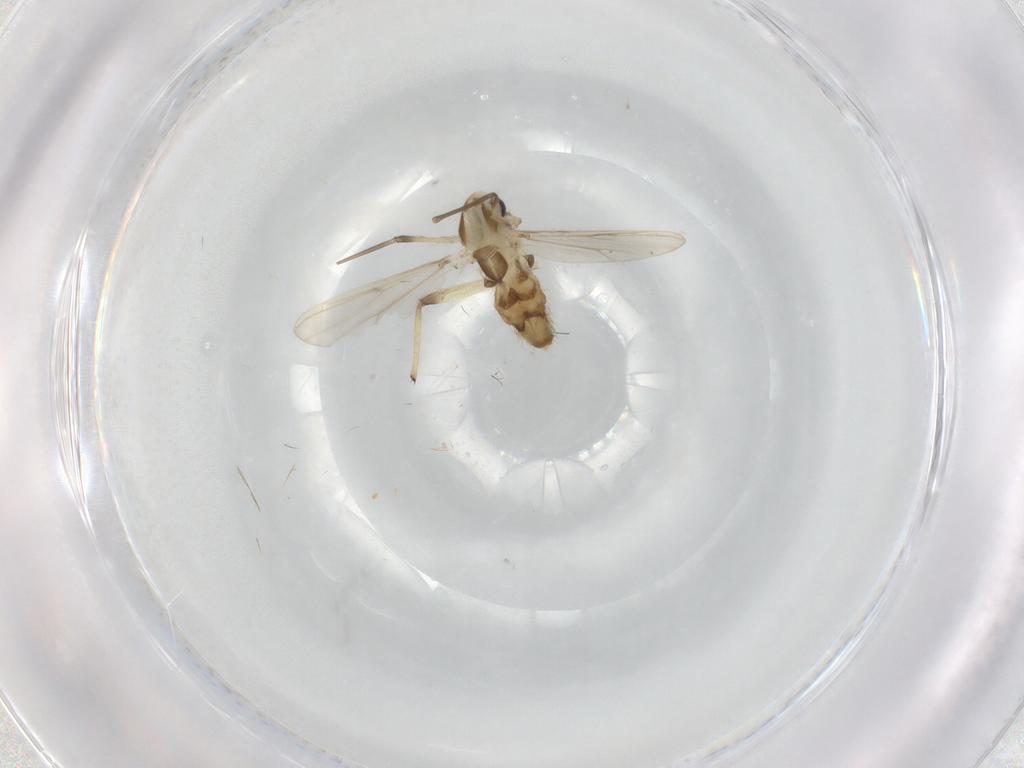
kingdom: Animalia
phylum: Arthropoda
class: Insecta
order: Diptera
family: Chironomidae
